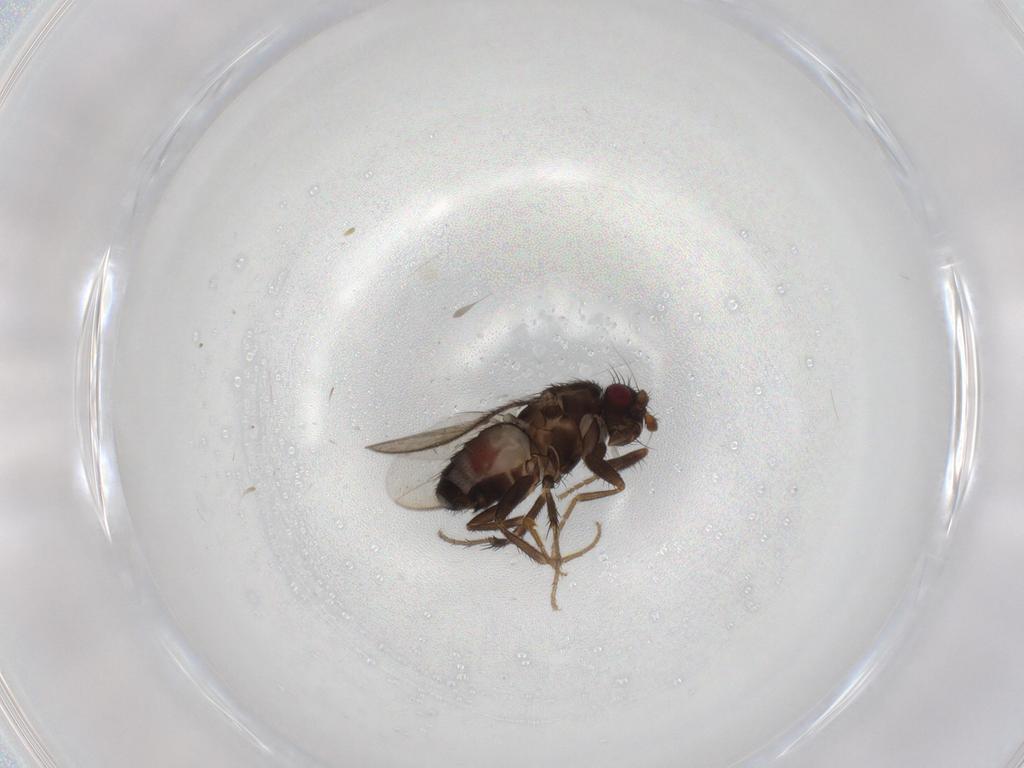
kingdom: Animalia
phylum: Arthropoda
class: Insecta
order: Diptera
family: Sphaeroceridae
